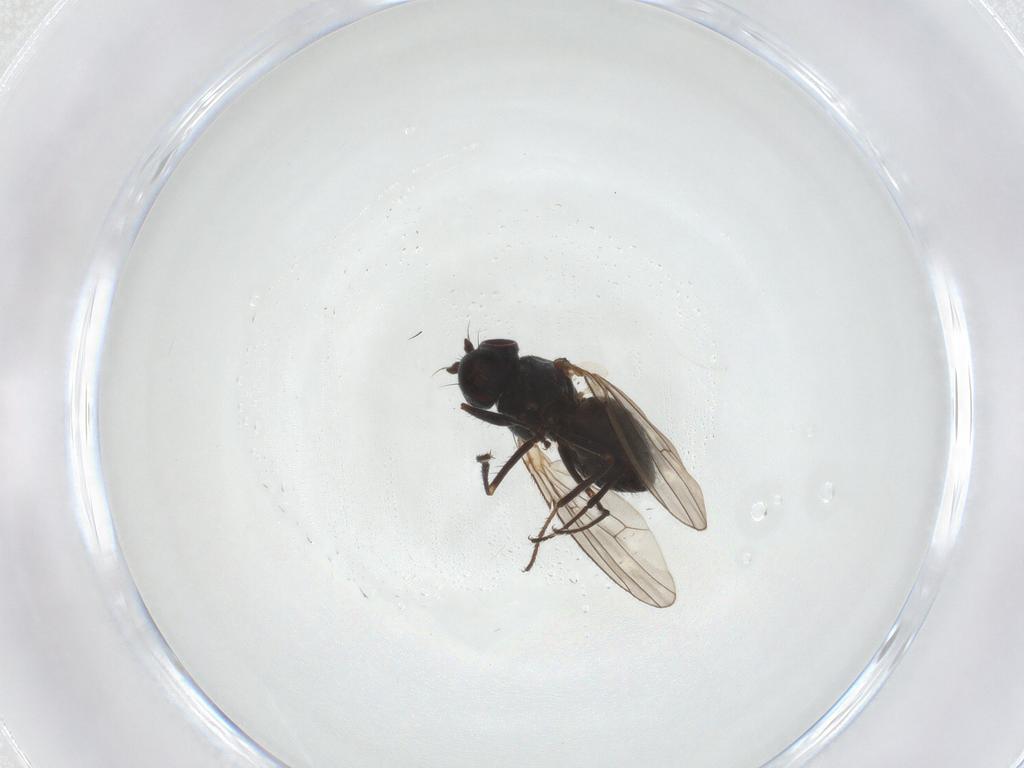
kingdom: Animalia
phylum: Arthropoda
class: Insecta
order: Diptera
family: Ephydridae
